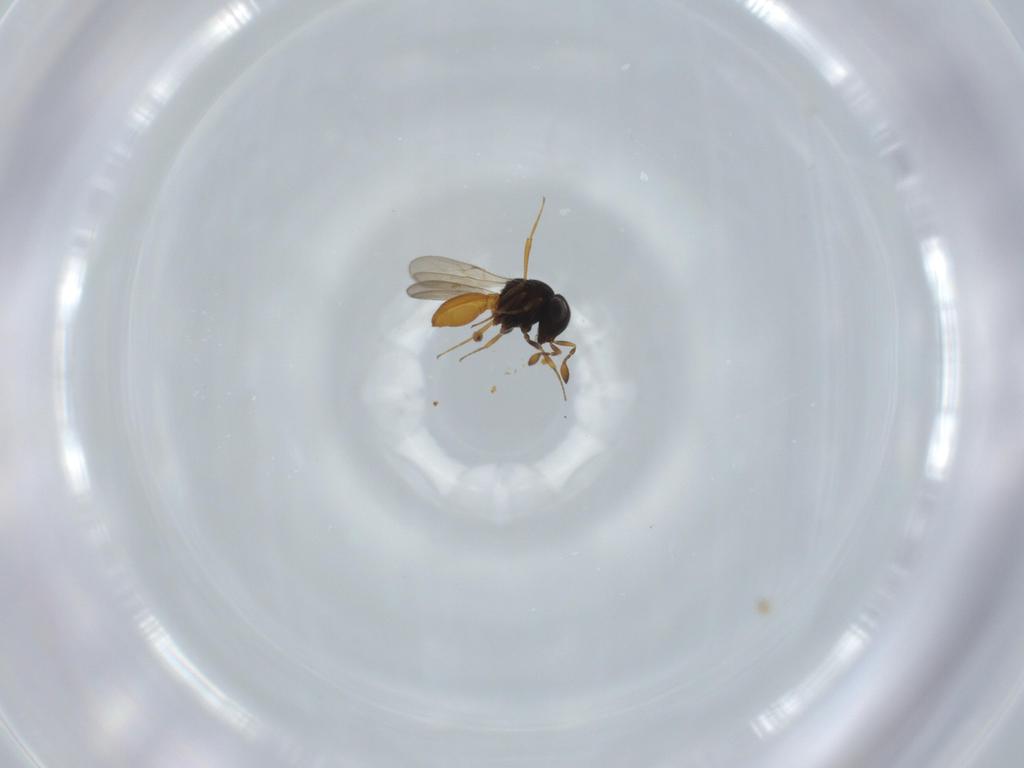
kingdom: Animalia
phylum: Arthropoda
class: Insecta
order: Hymenoptera
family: Scelionidae
